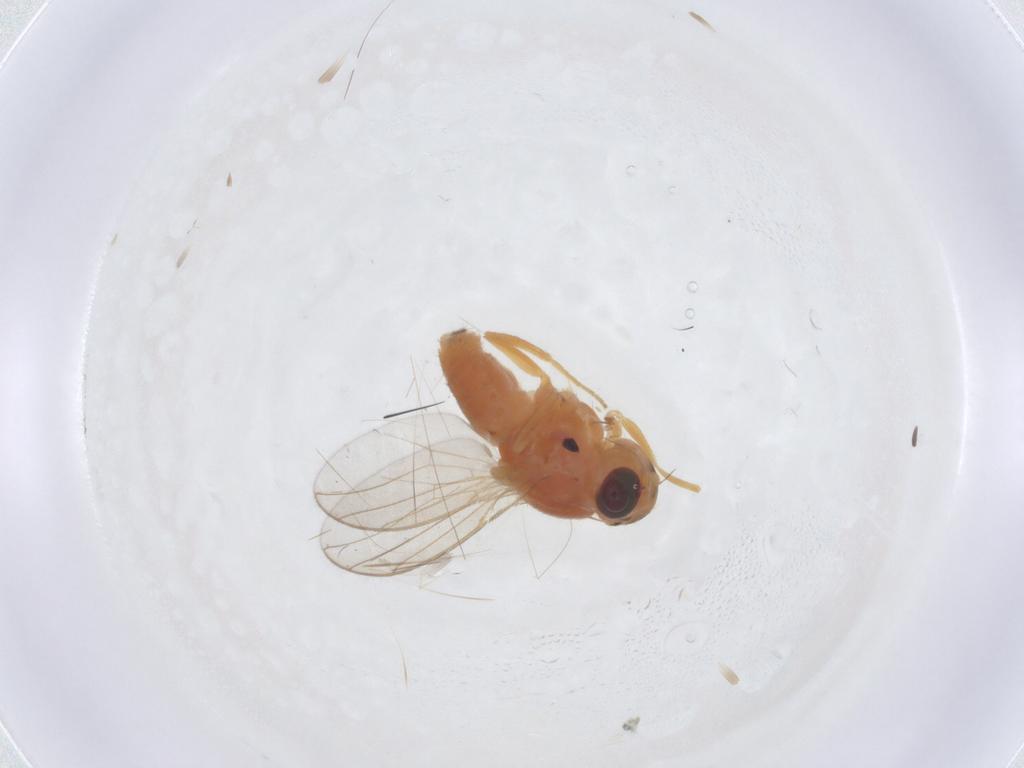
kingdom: Animalia
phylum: Arthropoda
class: Insecta
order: Diptera
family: Chloropidae
